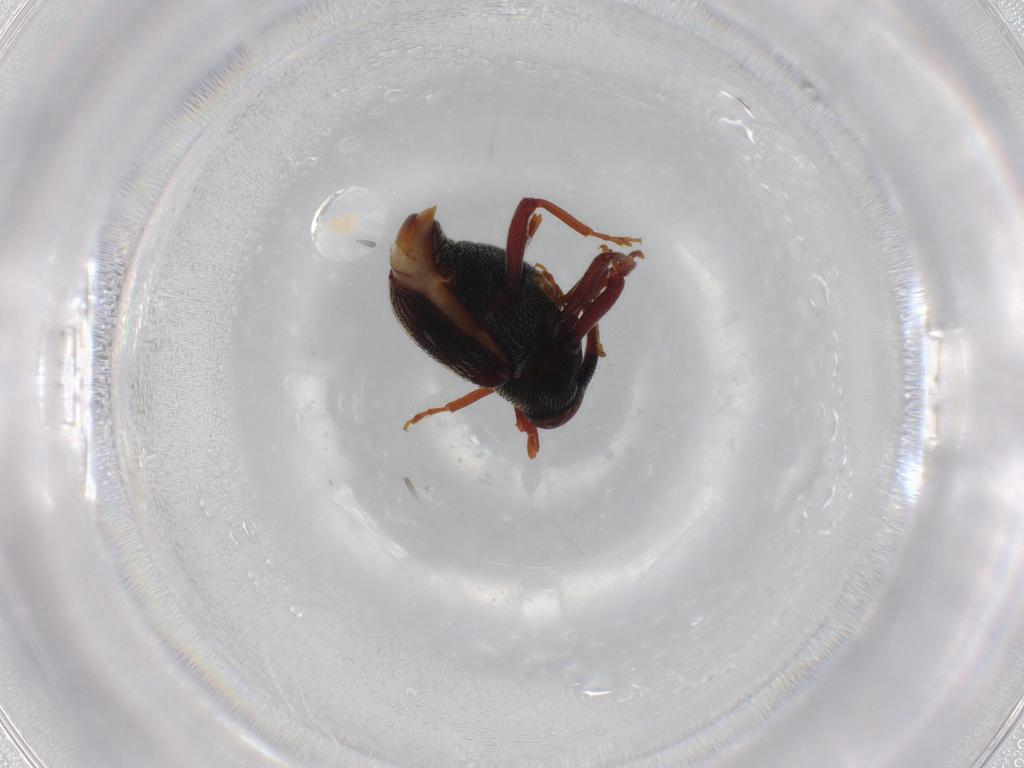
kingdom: Animalia
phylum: Arthropoda
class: Insecta
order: Coleoptera
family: Curculionidae
